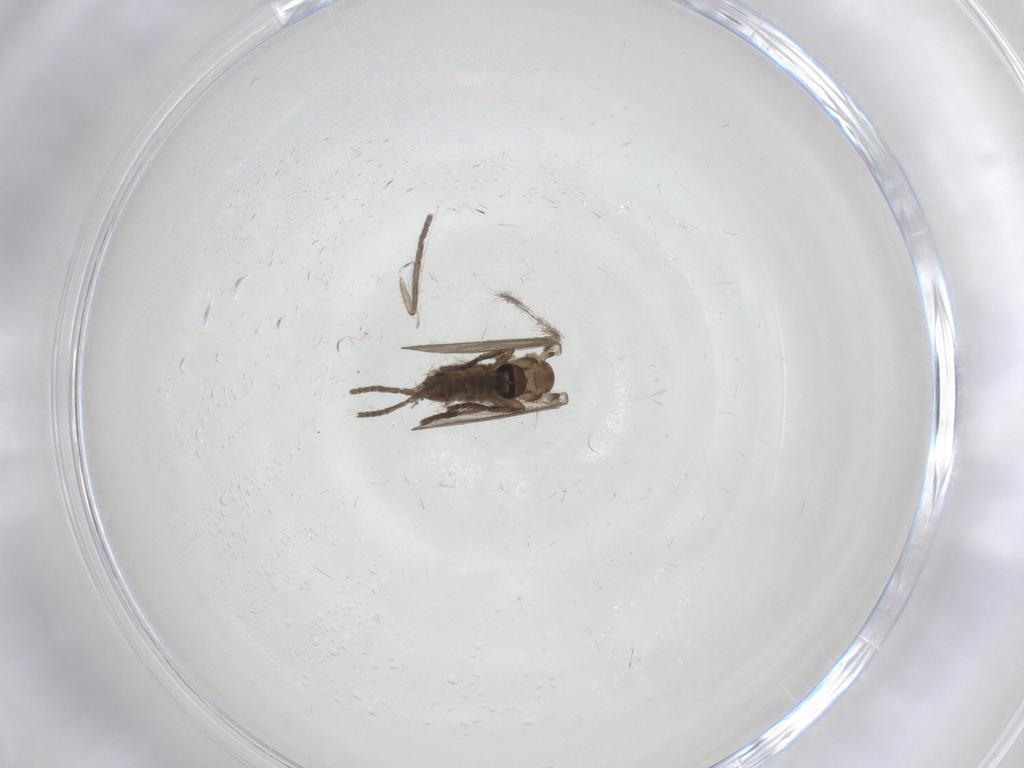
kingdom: Animalia
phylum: Arthropoda
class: Insecta
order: Diptera
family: Psychodidae
